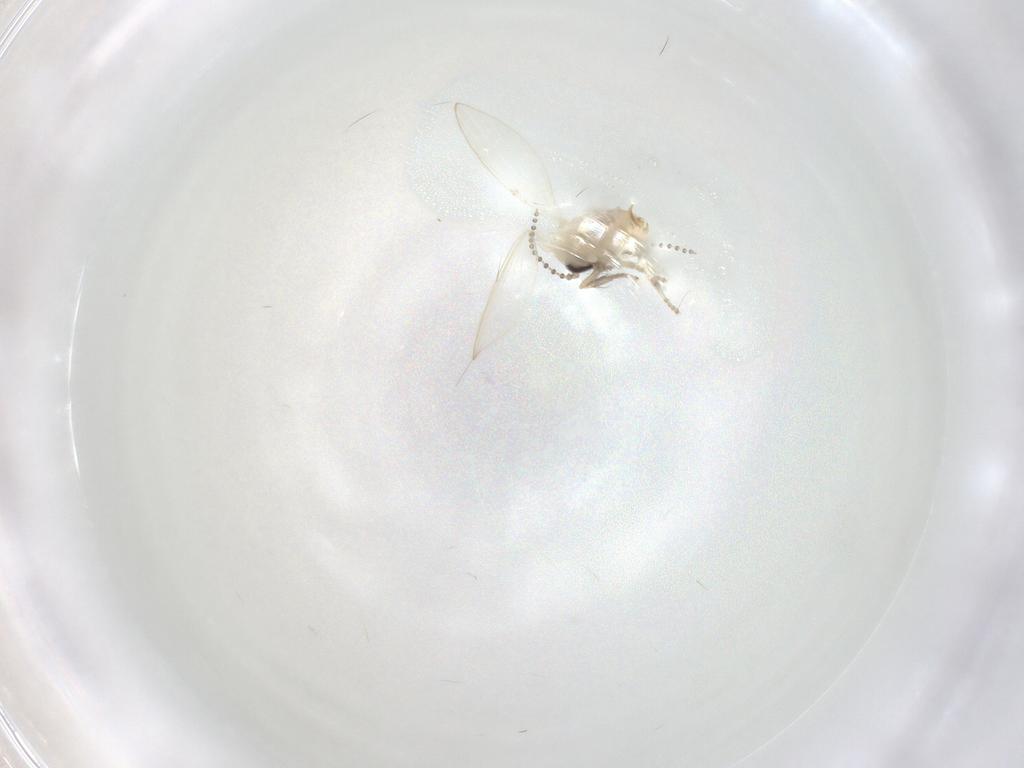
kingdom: Animalia
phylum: Arthropoda
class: Insecta
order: Diptera
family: Psychodidae
